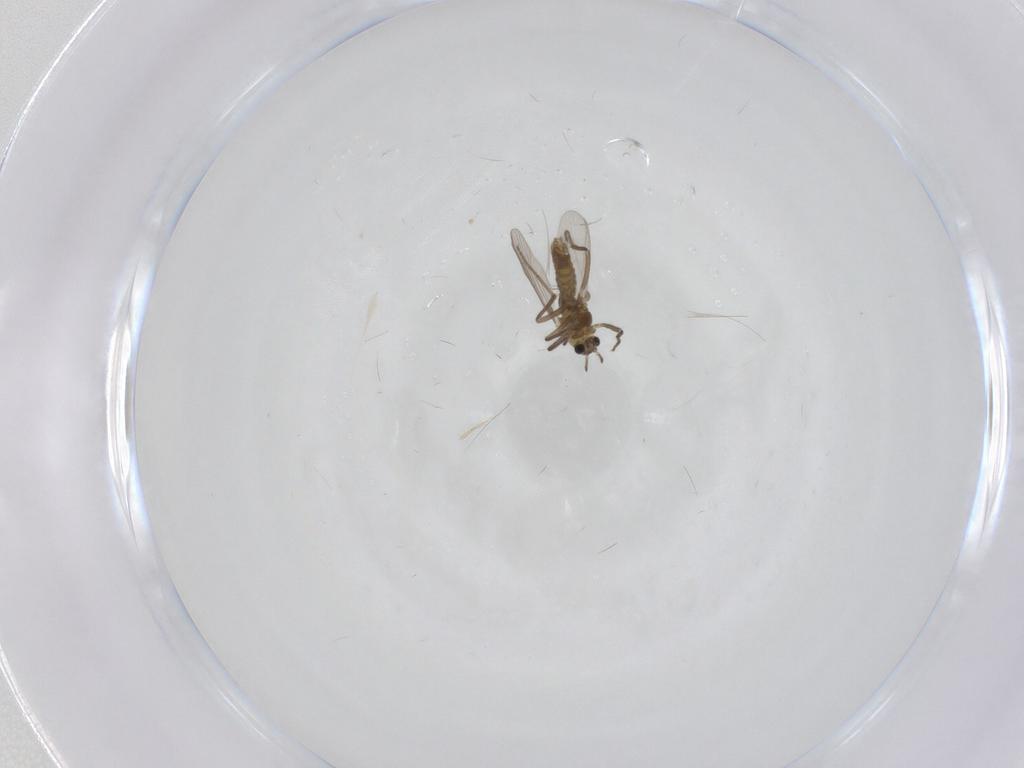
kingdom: Animalia
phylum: Arthropoda
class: Insecta
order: Diptera
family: Chironomidae
